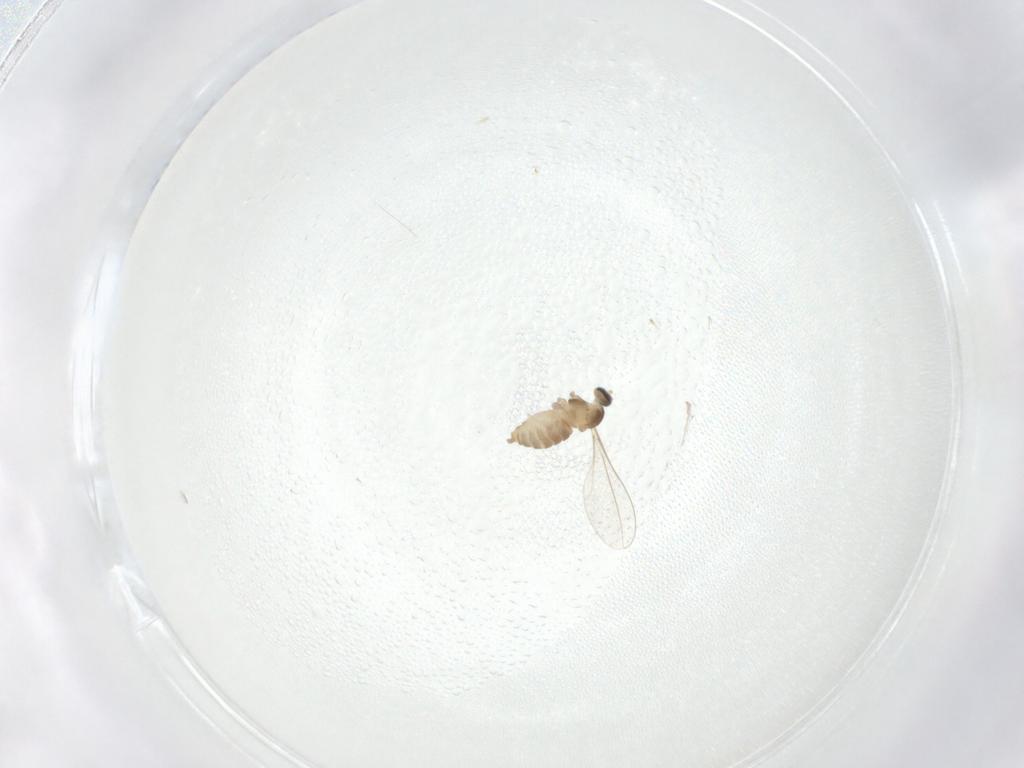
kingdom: Animalia
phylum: Arthropoda
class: Insecta
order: Diptera
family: Cecidomyiidae
